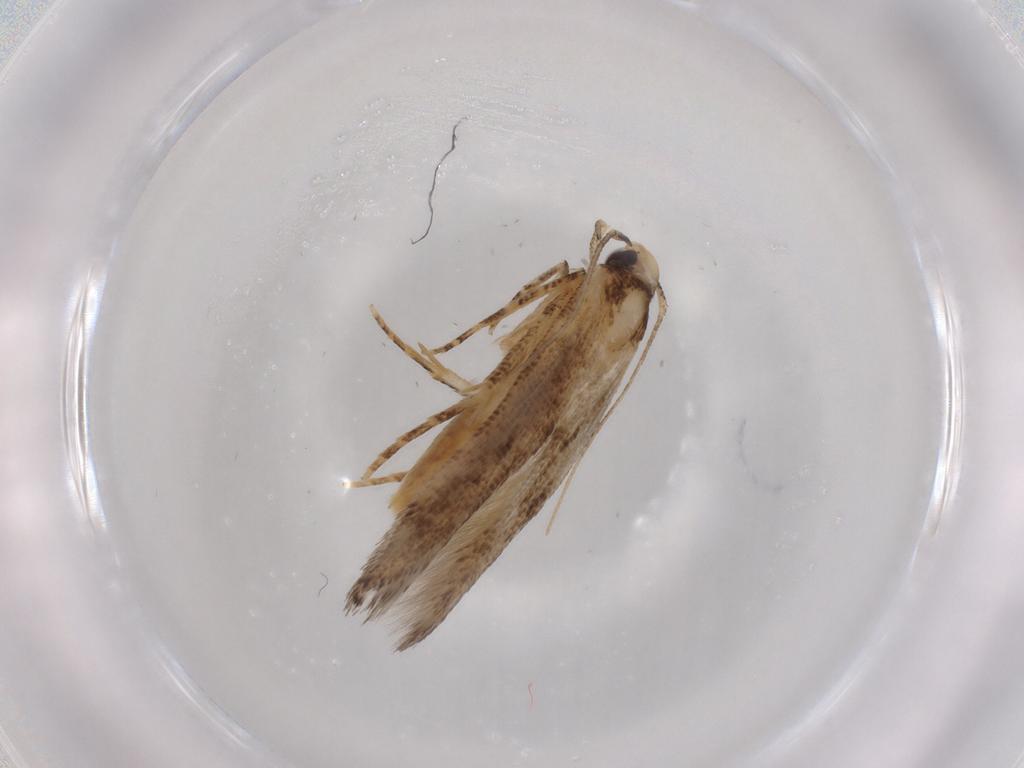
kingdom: Animalia
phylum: Arthropoda
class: Insecta
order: Lepidoptera
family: Cosmopterigidae
